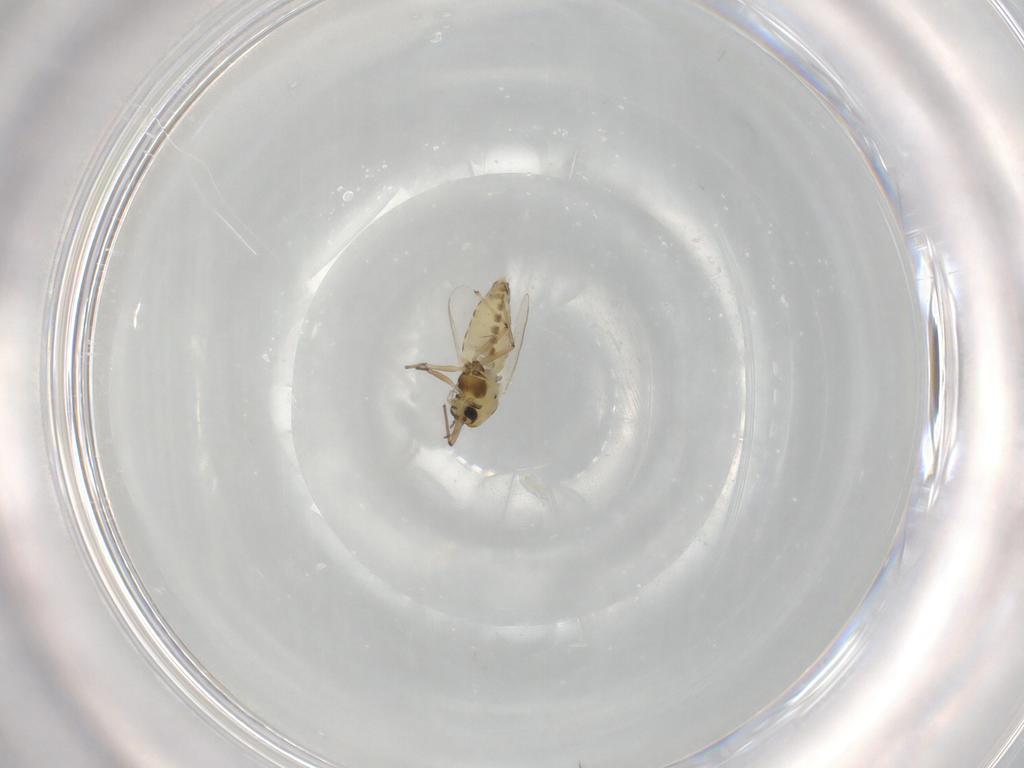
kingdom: Animalia
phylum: Arthropoda
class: Insecta
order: Diptera
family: Chironomidae
